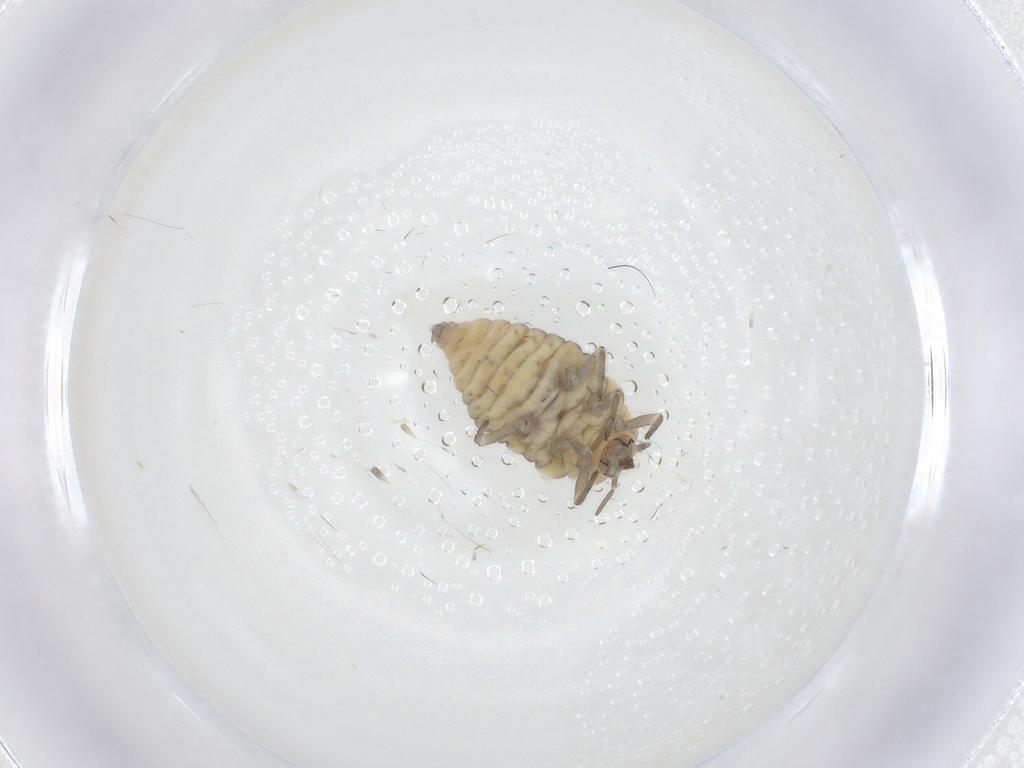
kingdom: Animalia
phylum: Arthropoda
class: Insecta
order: Neuroptera
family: Coniopterygidae
